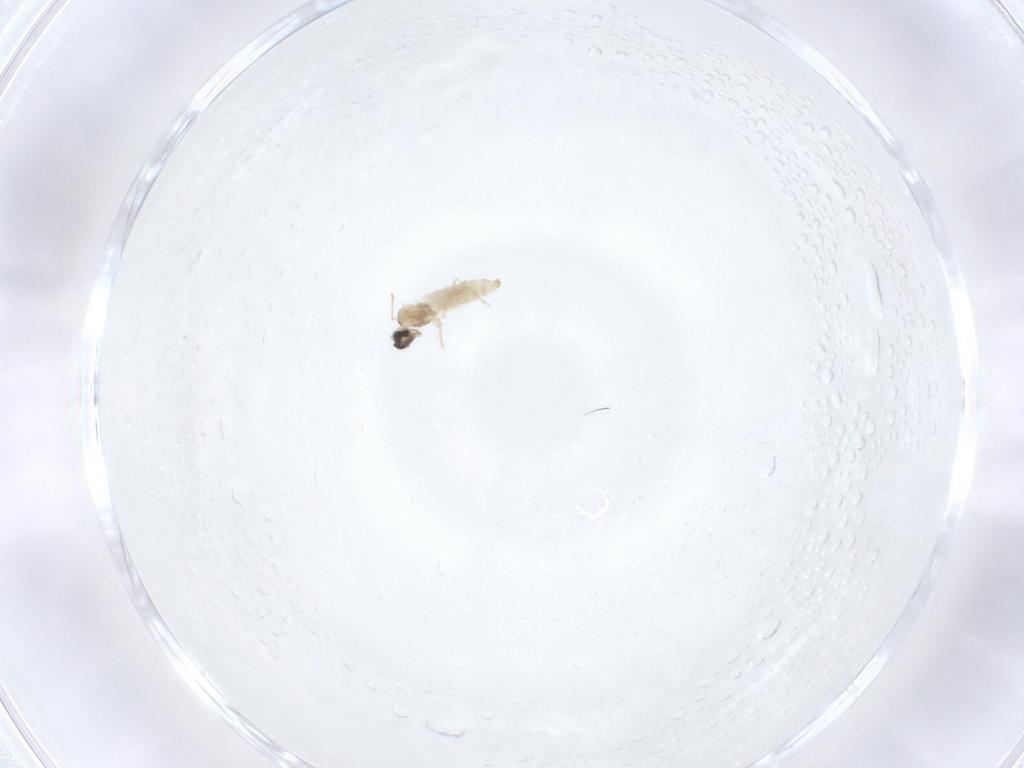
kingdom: Animalia
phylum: Arthropoda
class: Insecta
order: Diptera
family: Cecidomyiidae
